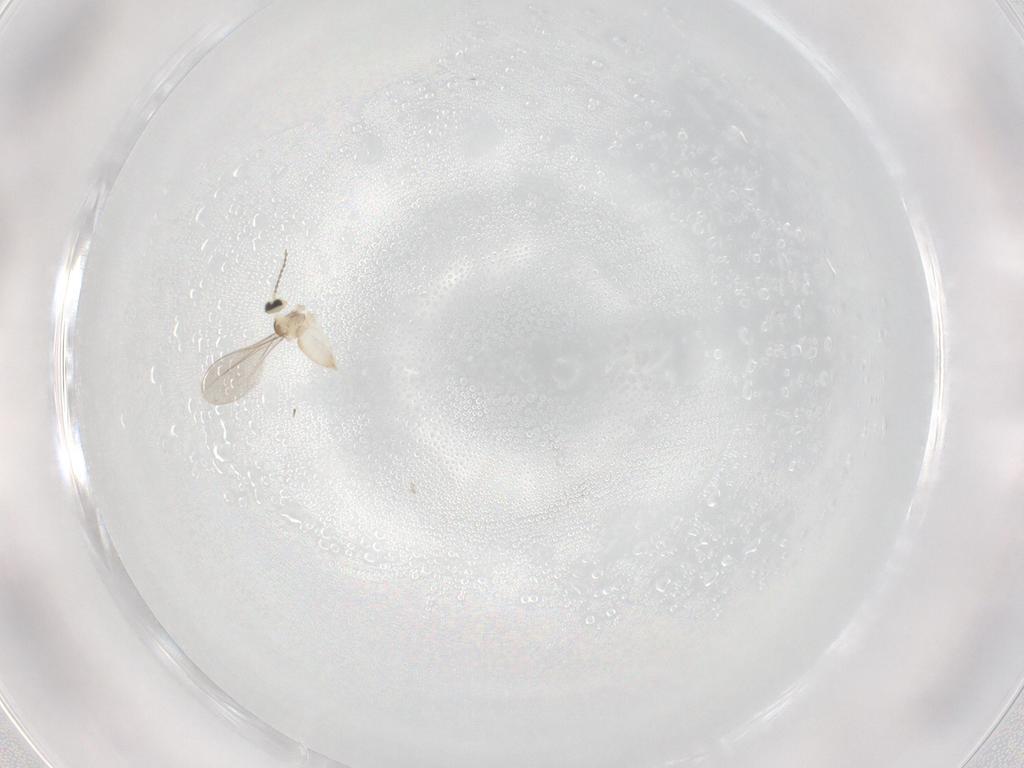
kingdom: Animalia
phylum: Arthropoda
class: Insecta
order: Diptera
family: Cecidomyiidae
